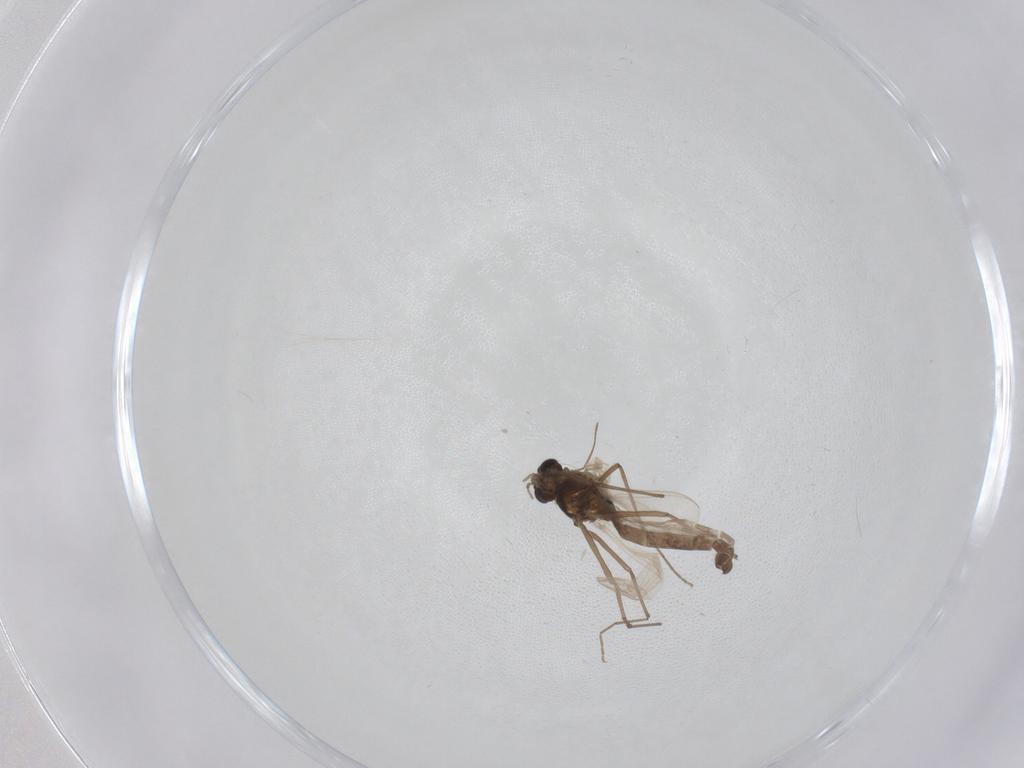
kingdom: Animalia
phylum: Arthropoda
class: Insecta
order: Diptera
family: Chironomidae
